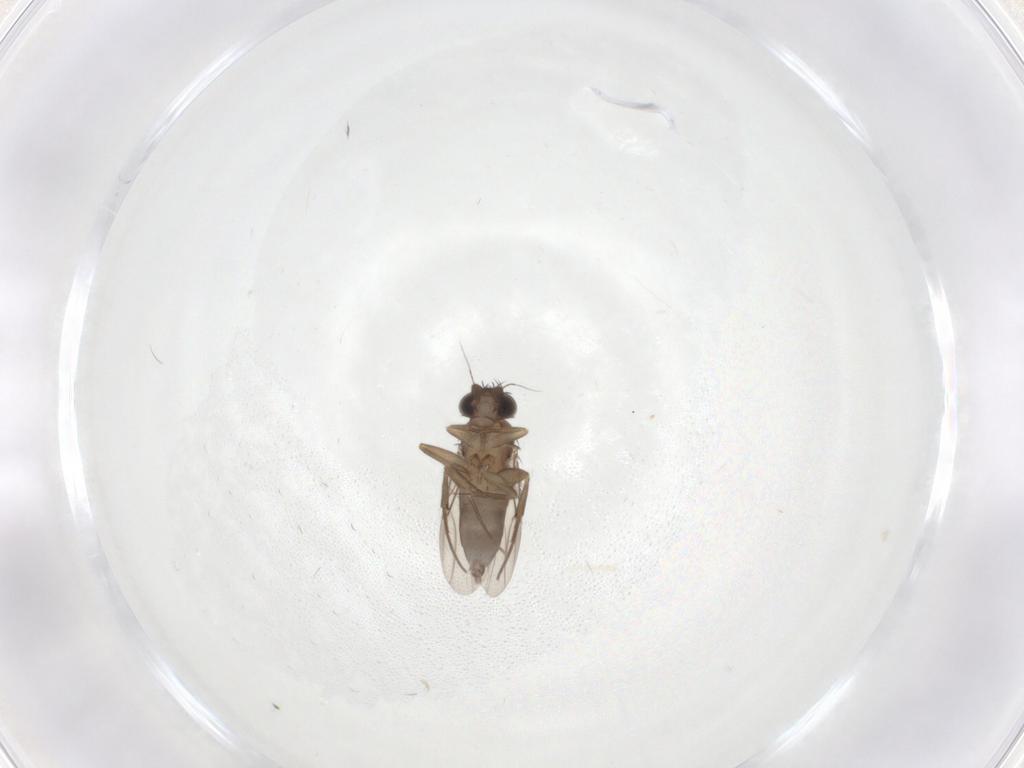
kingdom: Animalia
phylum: Arthropoda
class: Insecta
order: Diptera
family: Phoridae
